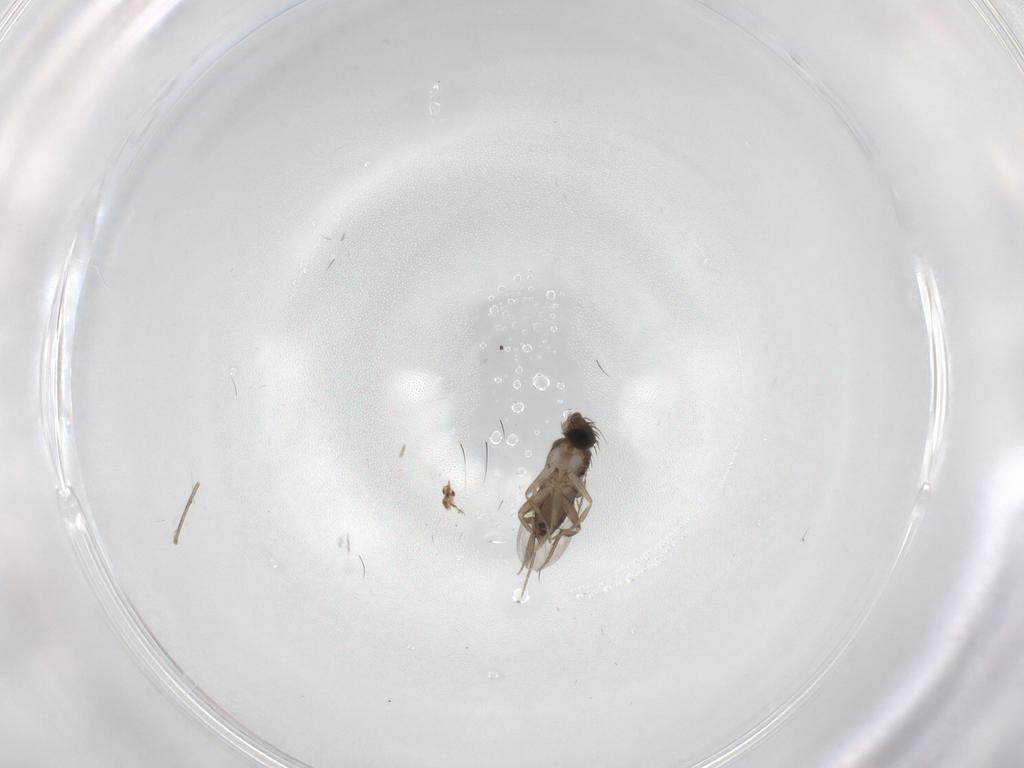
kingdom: Animalia
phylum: Arthropoda
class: Insecta
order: Diptera
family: Phoridae
